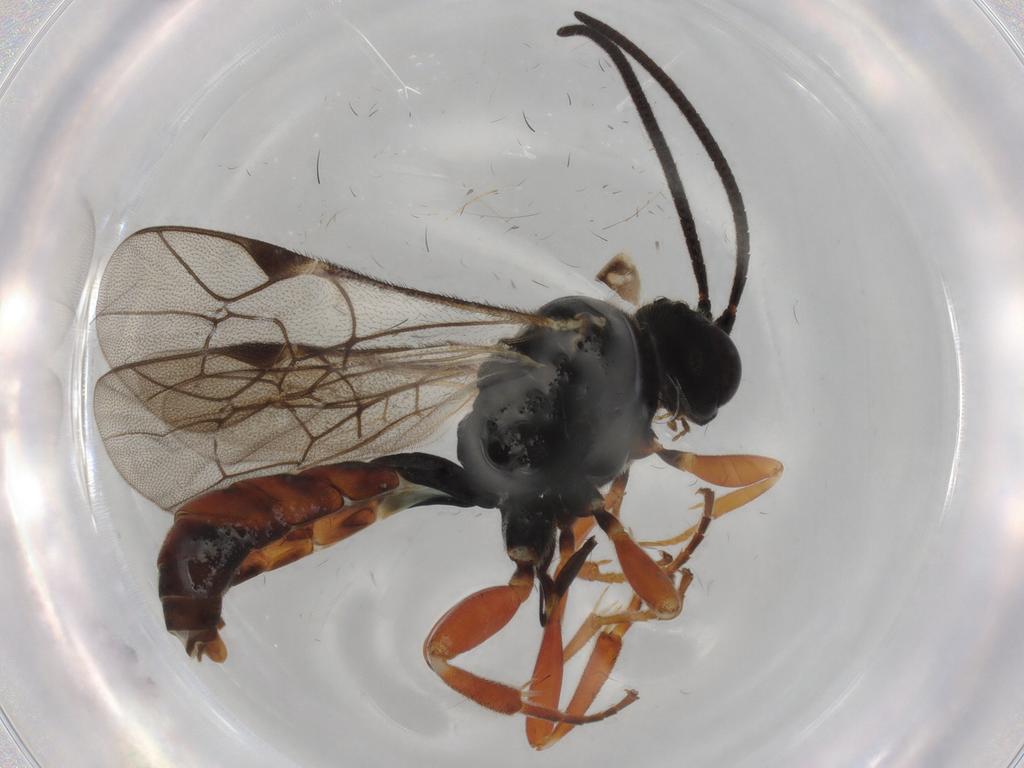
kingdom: Animalia
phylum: Arthropoda
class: Insecta
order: Hymenoptera
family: Ichneumonidae
